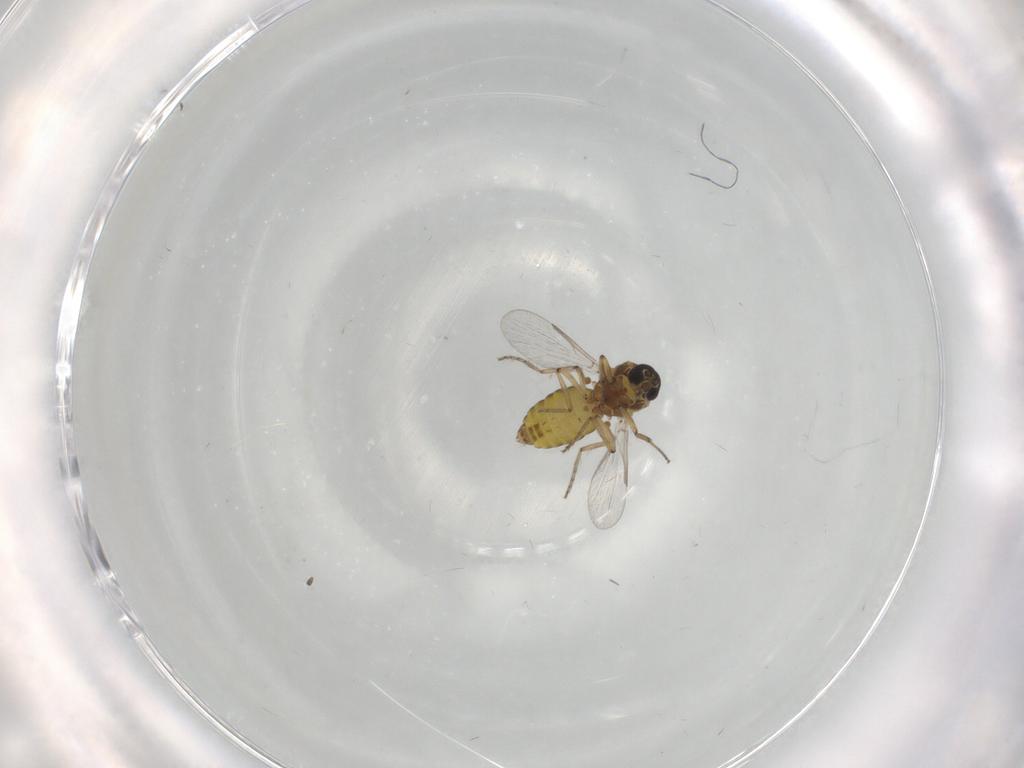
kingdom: Animalia
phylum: Arthropoda
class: Insecta
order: Diptera
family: Ceratopogonidae
